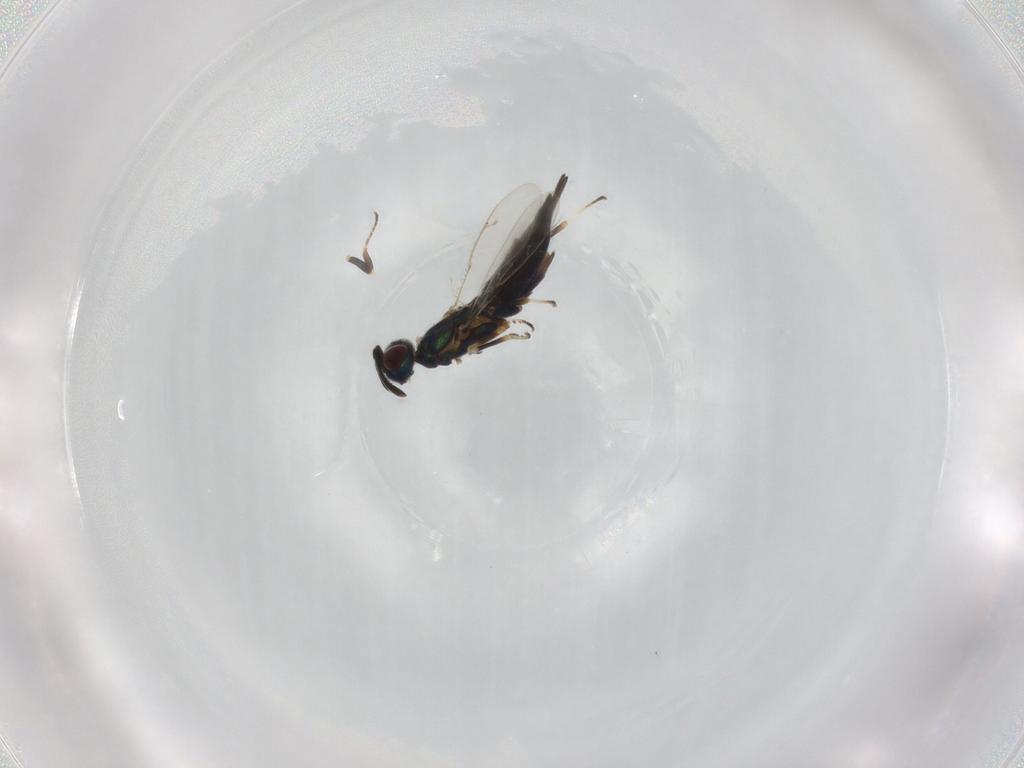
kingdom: Animalia
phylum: Arthropoda
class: Insecta
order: Hymenoptera
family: Eupelmidae
